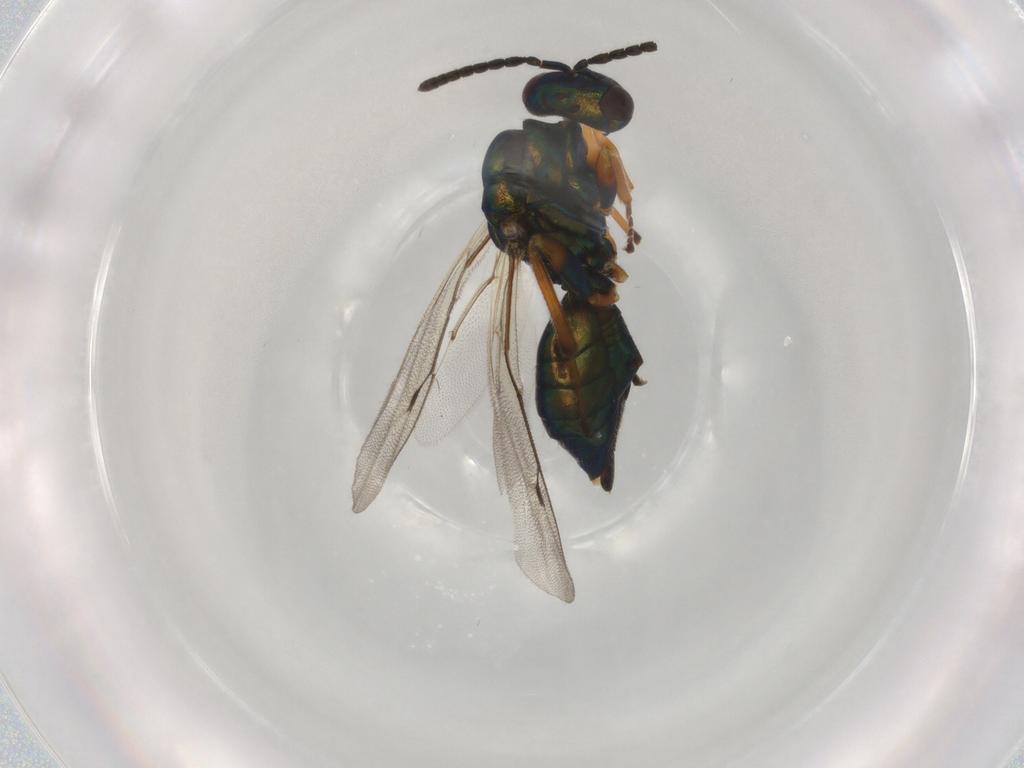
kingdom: Animalia
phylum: Arthropoda
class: Insecta
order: Hymenoptera
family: Pteromalidae
